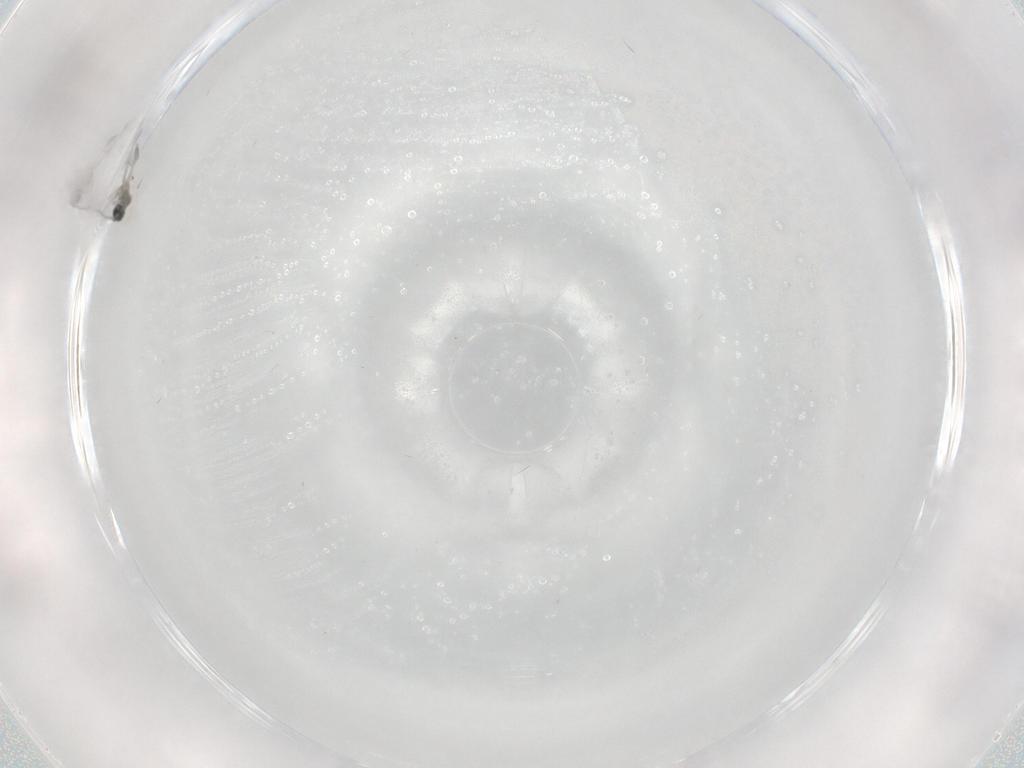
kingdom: Animalia
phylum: Arthropoda
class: Insecta
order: Diptera
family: Cecidomyiidae
